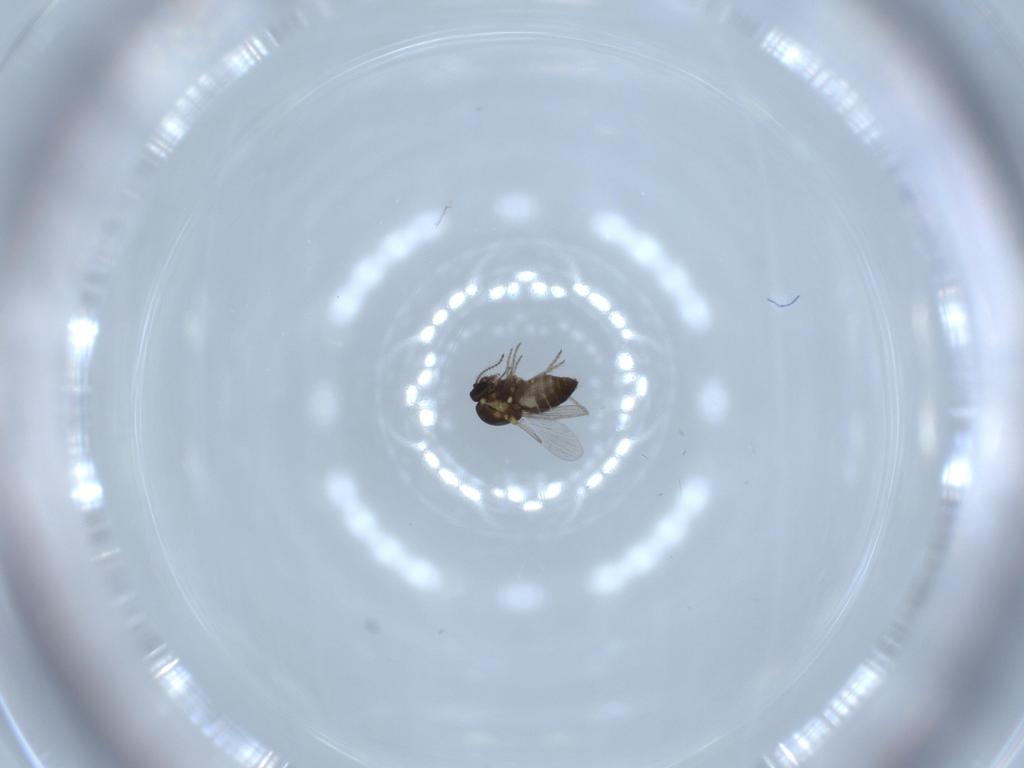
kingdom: Animalia
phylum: Arthropoda
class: Insecta
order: Diptera
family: Ceratopogonidae
